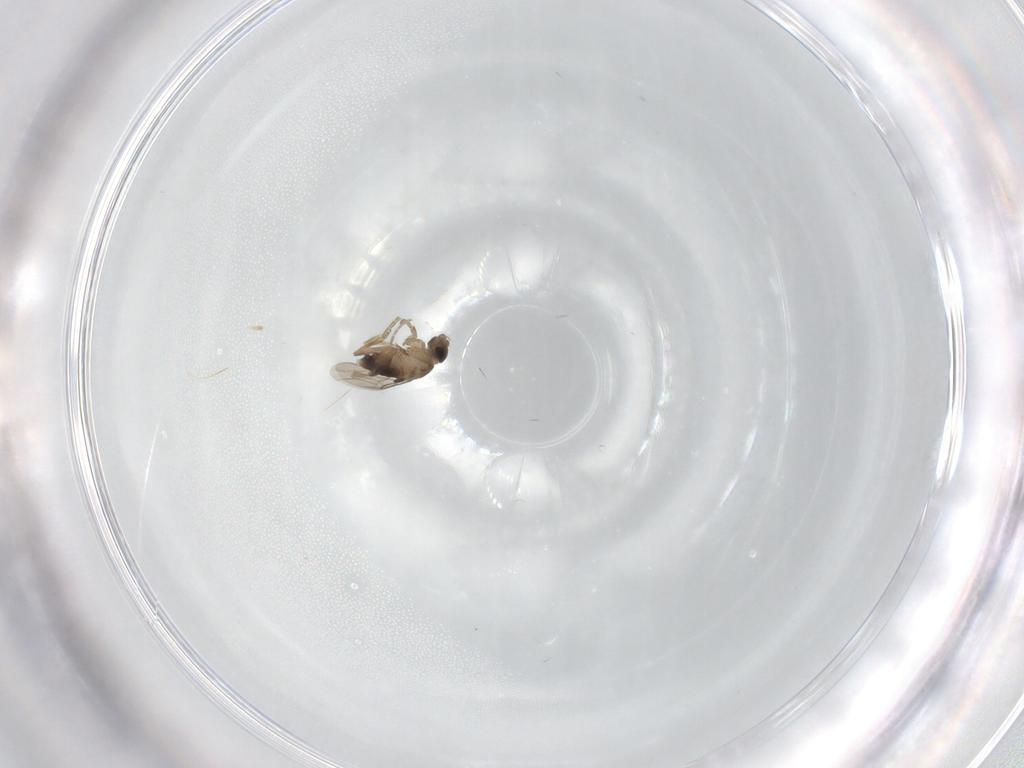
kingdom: Animalia
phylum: Arthropoda
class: Insecta
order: Diptera
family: Phoridae
